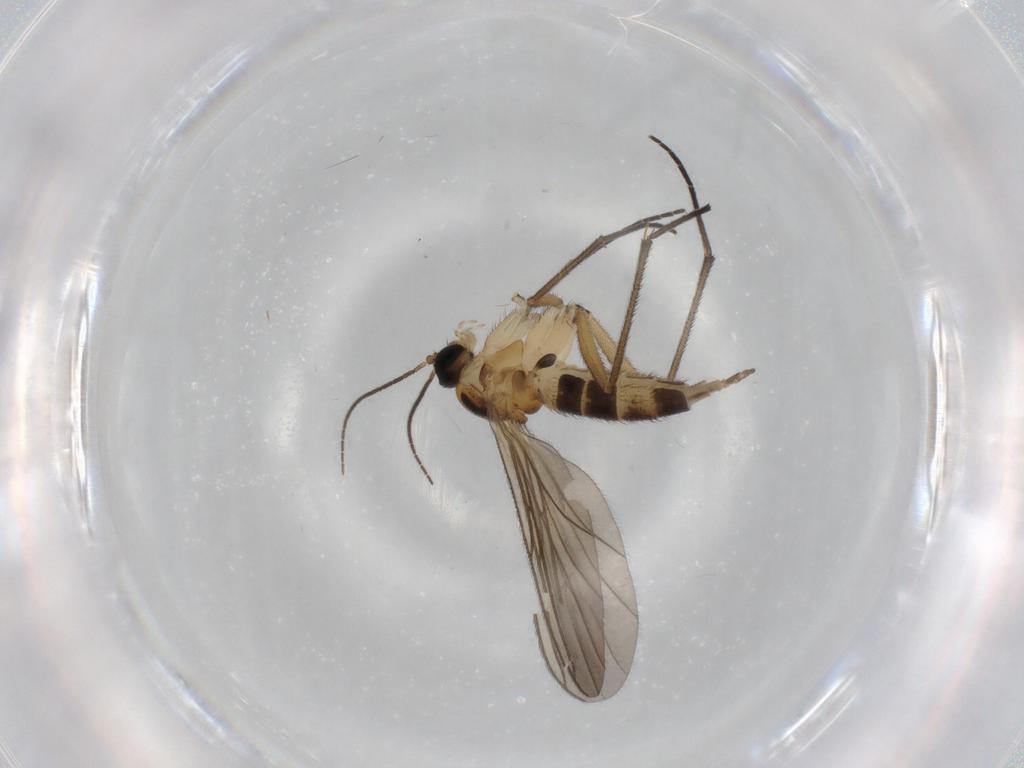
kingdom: Animalia
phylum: Arthropoda
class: Insecta
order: Diptera
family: Sciaridae
